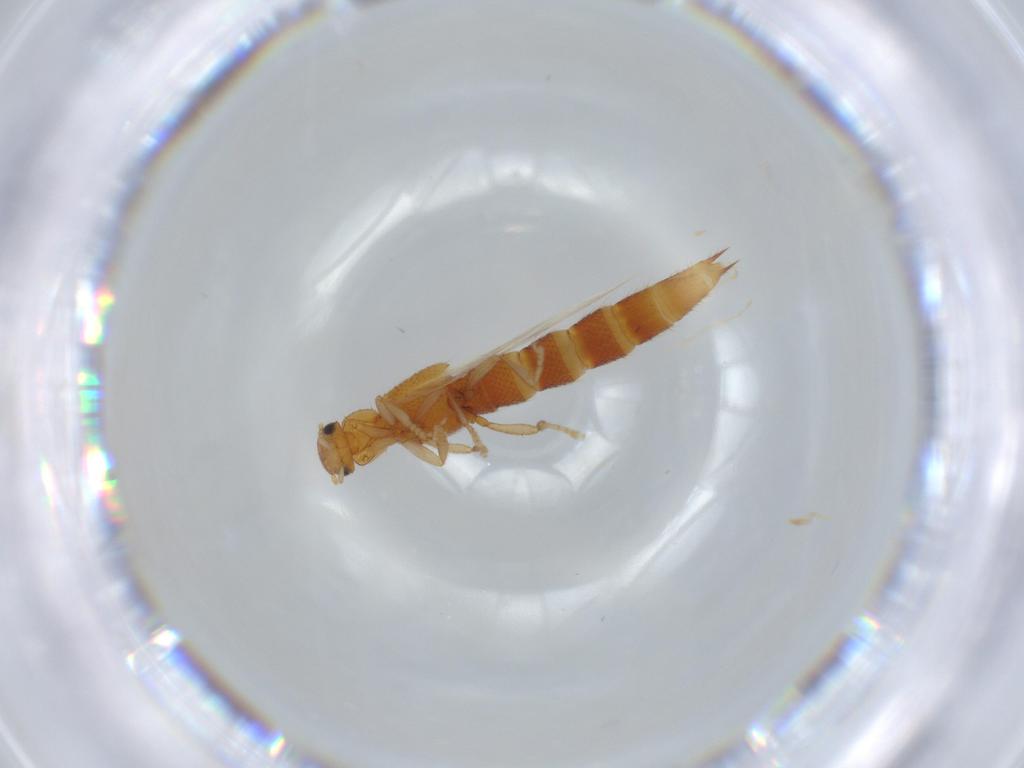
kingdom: Animalia
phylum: Arthropoda
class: Insecta
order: Coleoptera
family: Staphylinidae
